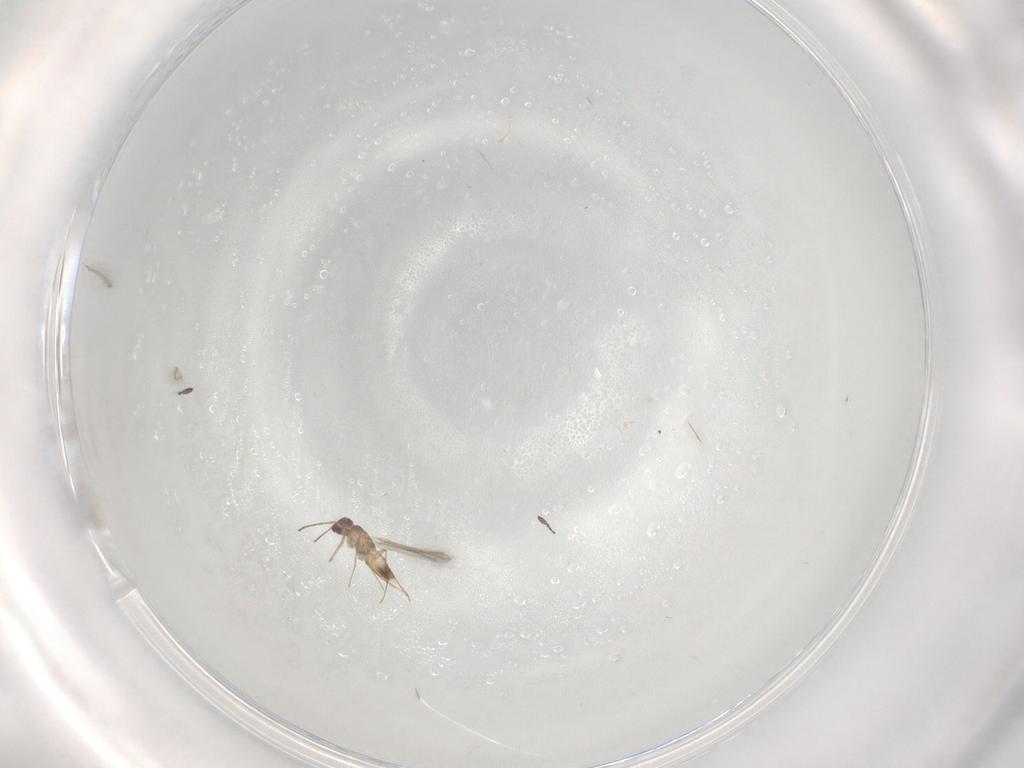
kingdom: Animalia
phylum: Arthropoda
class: Insecta
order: Hymenoptera
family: Mymaridae
